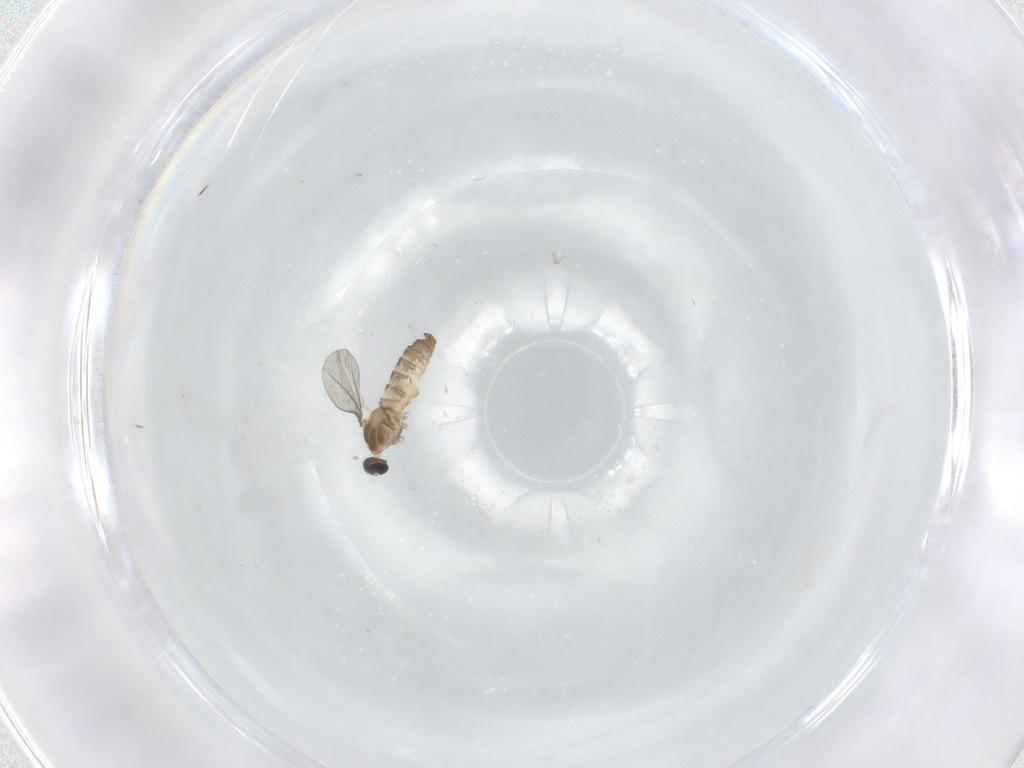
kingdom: Animalia
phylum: Arthropoda
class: Insecta
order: Diptera
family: Cecidomyiidae
